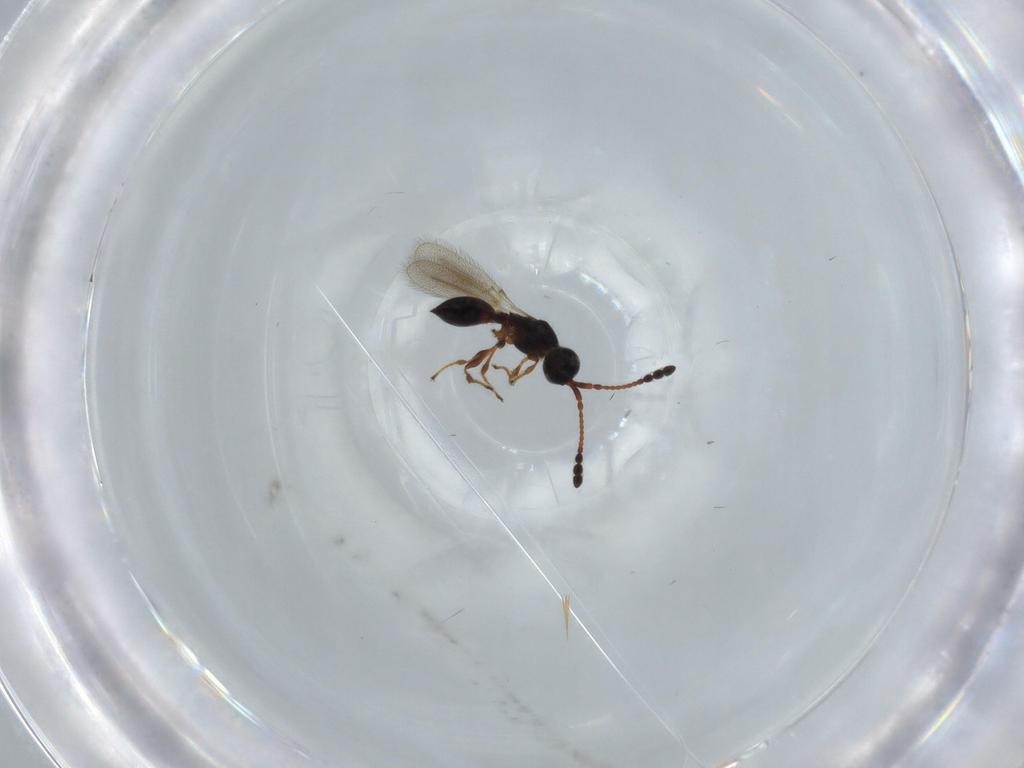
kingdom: Animalia
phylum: Arthropoda
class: Insecta
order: Hymenoptera
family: Diapriidae
